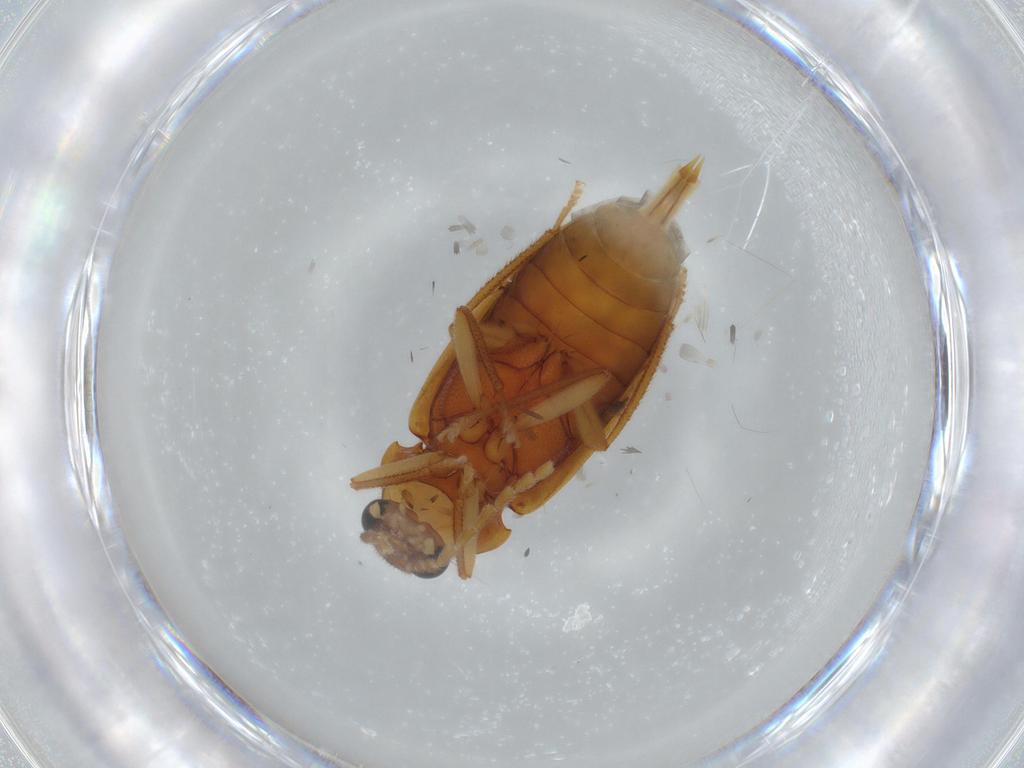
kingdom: Animalia
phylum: Arthropoda
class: Insecta
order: Coleoptera
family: Ptilodactylidae
